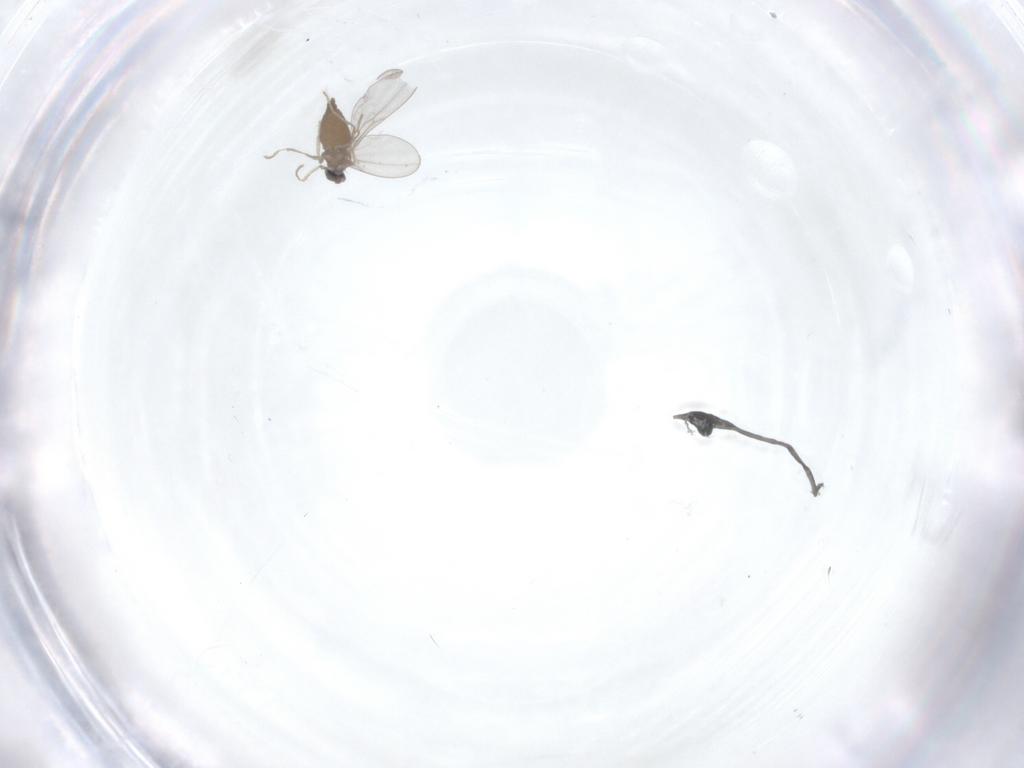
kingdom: Animalia
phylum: Arthropoda
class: Insecta
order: Diptera
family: Cecidomyiidae
